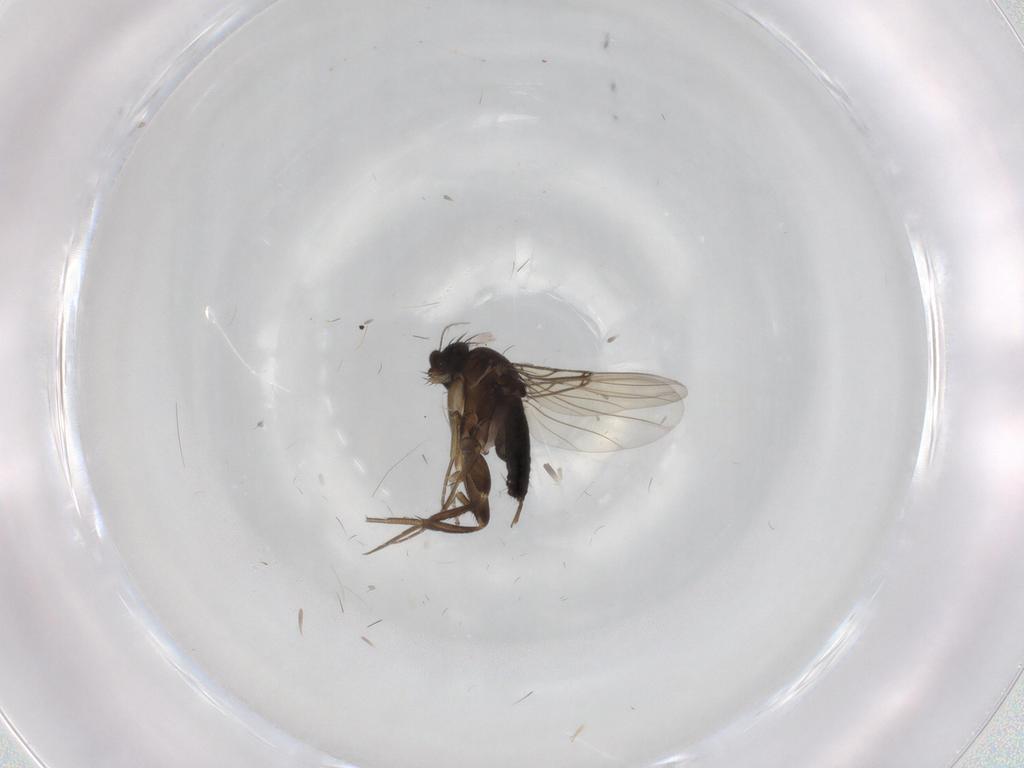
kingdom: Animalia
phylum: Arthropoda
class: Insecta
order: Diptera
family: Phoridae
